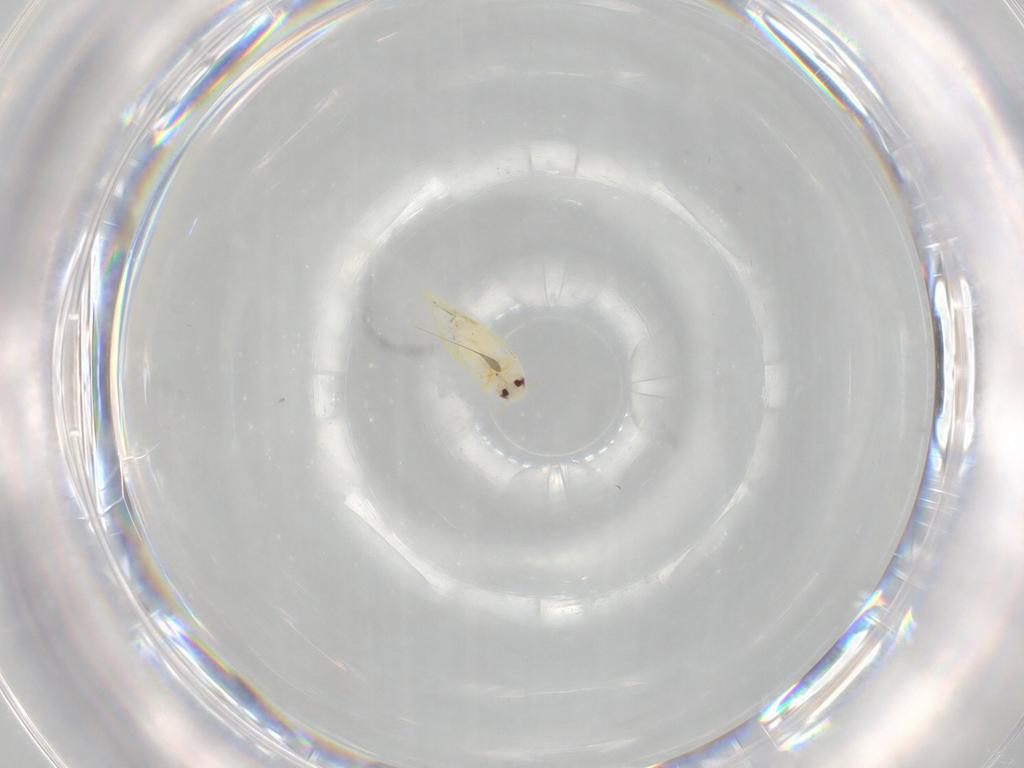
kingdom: Animalia
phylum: Arthropoda
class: Insecta
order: Hemiptera
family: Aleyrodidae
